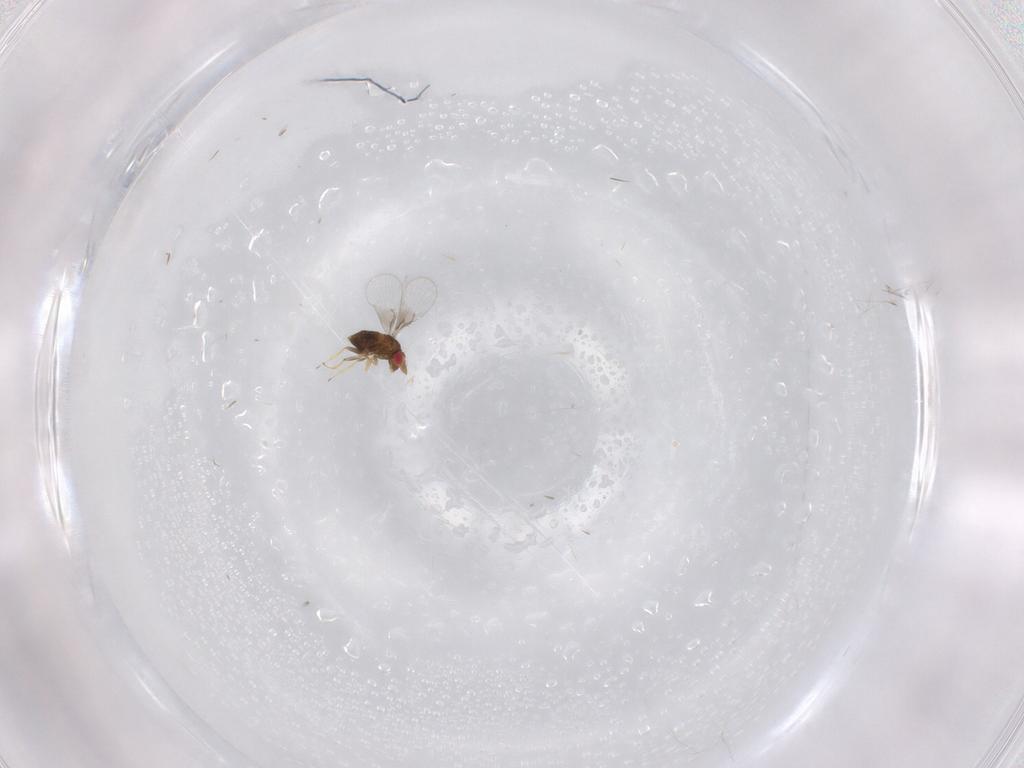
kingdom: Animalia
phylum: Arthropoda
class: Insecta
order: Hymenoptera
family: Trichogrammatidae
